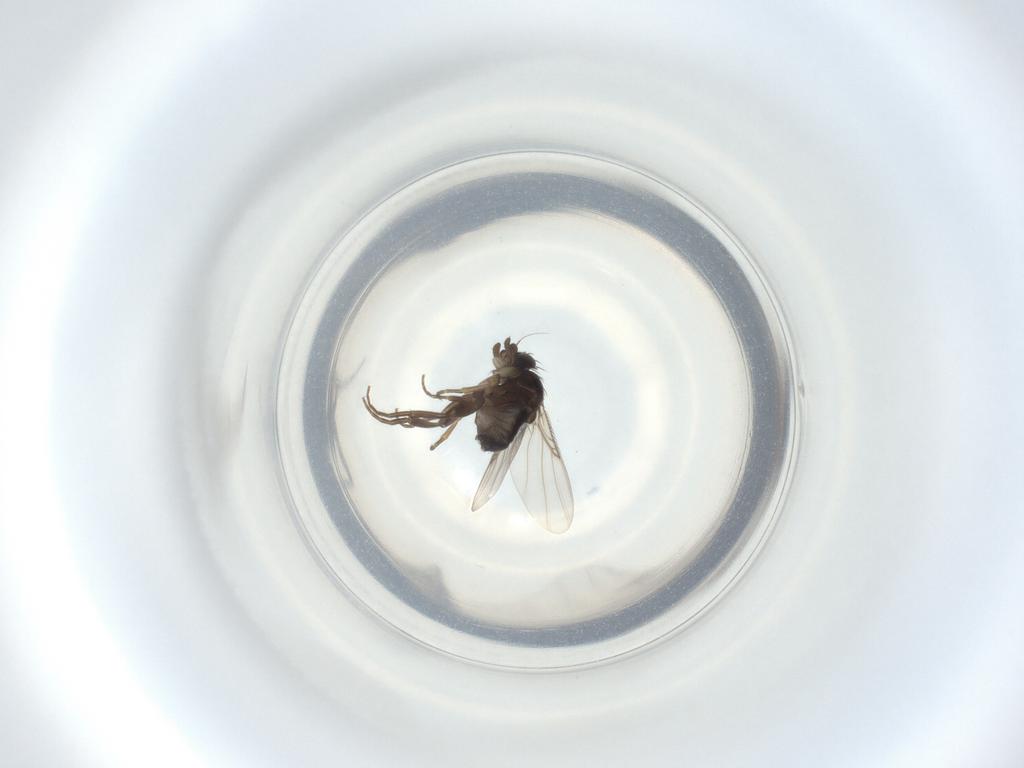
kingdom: Animalia
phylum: Arthropoda
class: Insecta
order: Diptera
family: Phoridae
